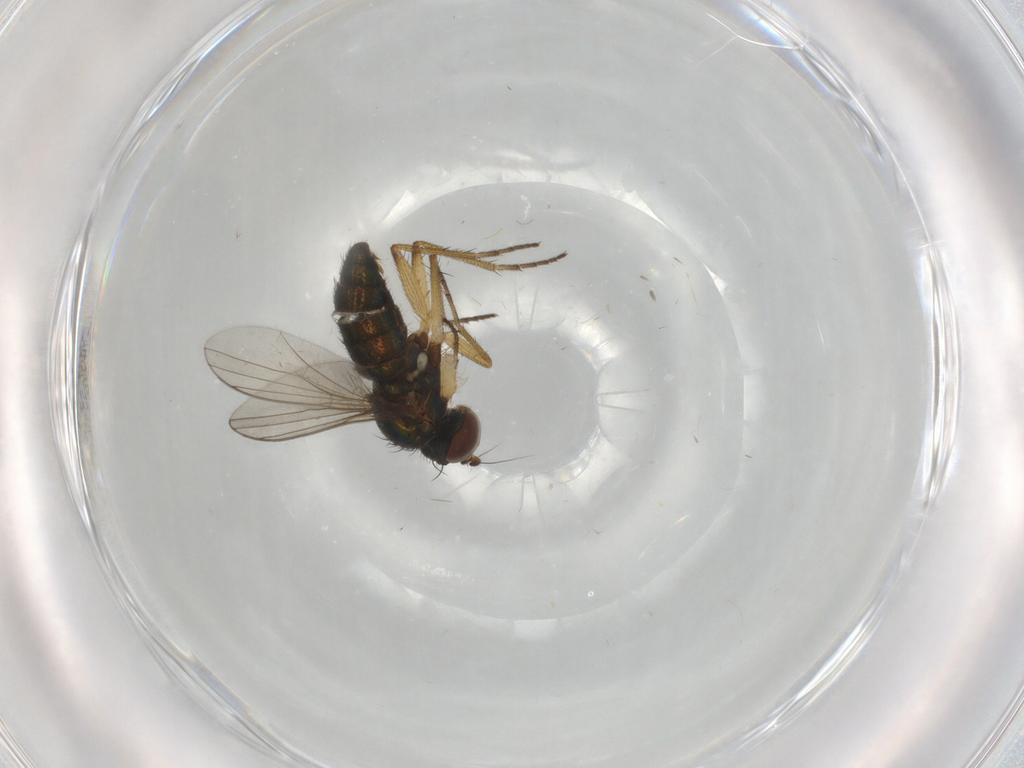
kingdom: Animalia
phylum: Arthropoda
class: Insecta
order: Diptera
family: Dolichopodidae
